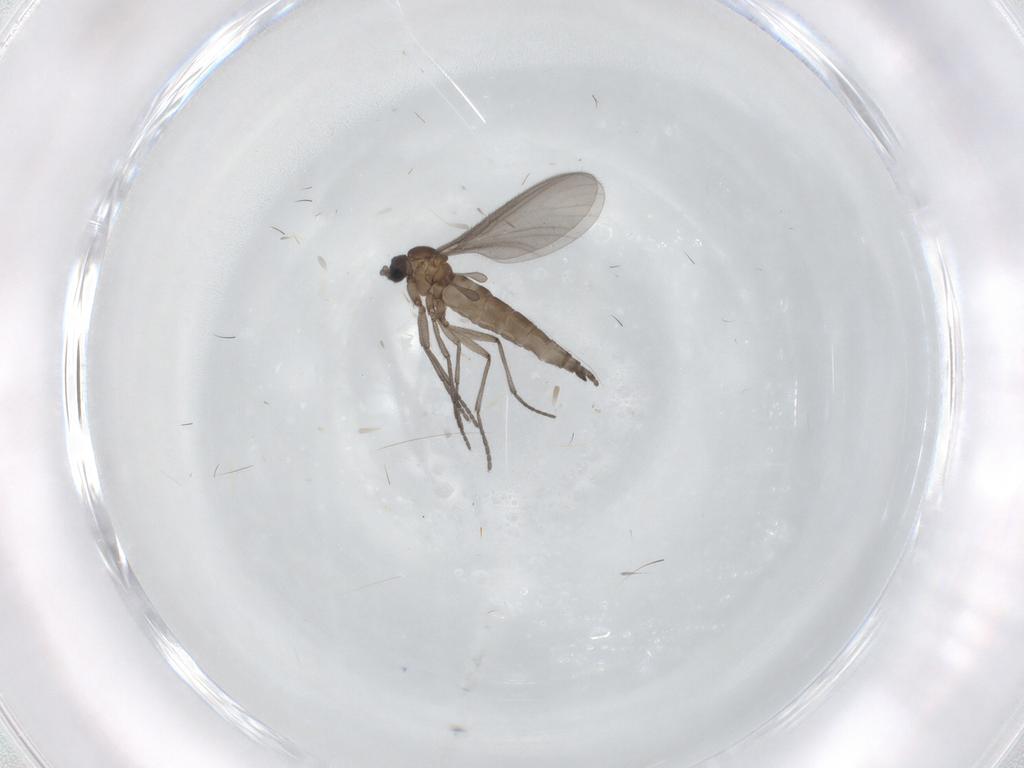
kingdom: Animalia
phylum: Arthropoda
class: Insecta
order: Diptera
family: Sciaridae
